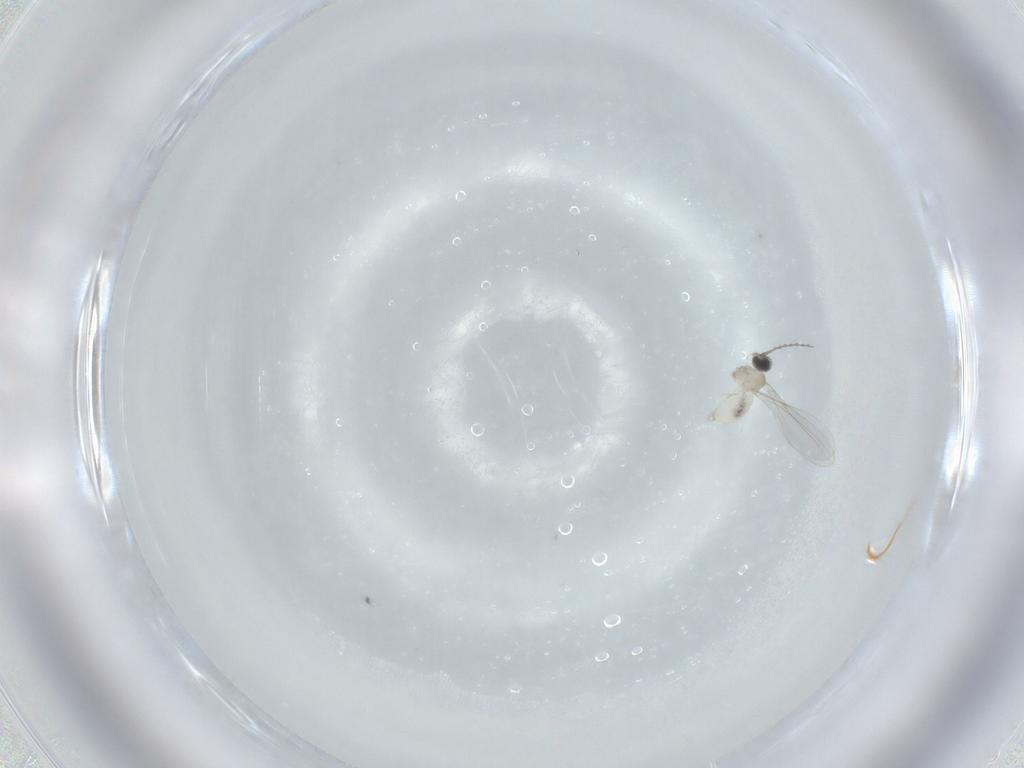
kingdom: Animalia
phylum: Arthropoda
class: Insecta
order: Diptera
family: Cecidomyiidae
